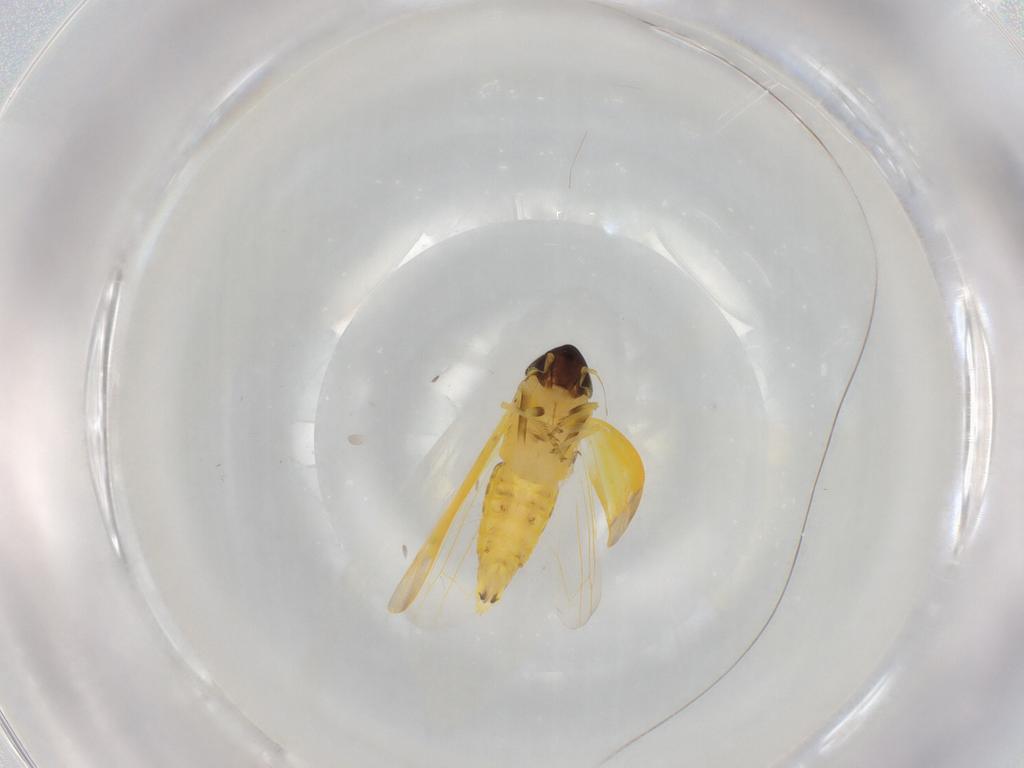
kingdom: Animalia
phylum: Arthropoda
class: Insecta
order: Hemiptera
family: Cicadellidae
